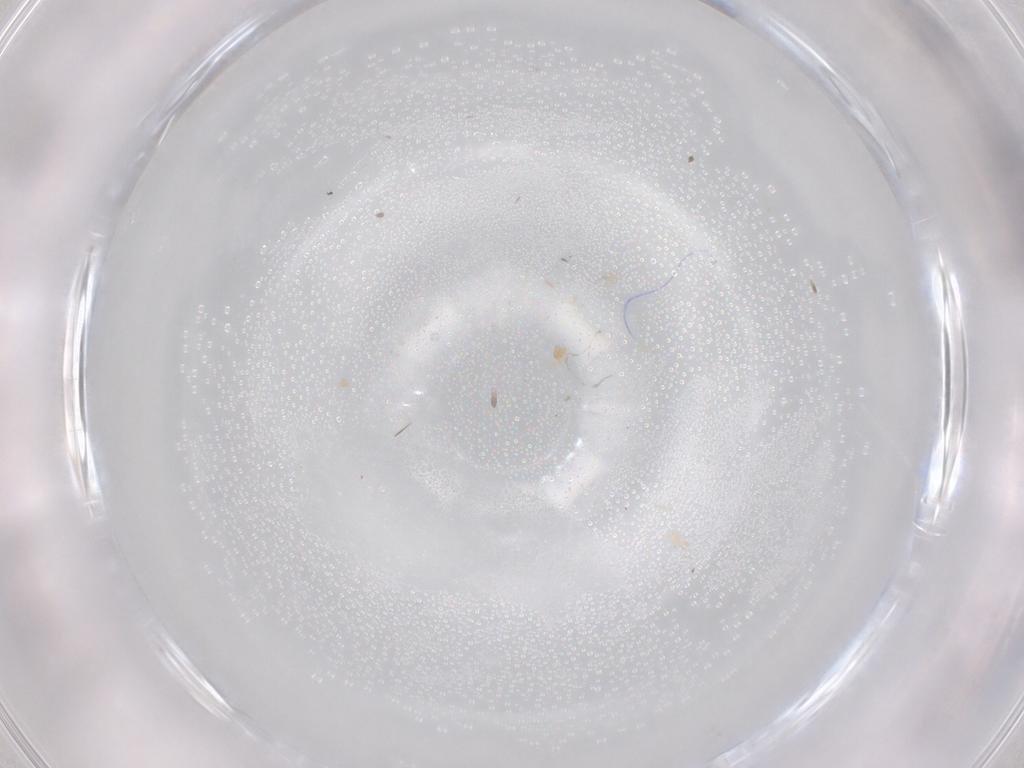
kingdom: Animalia
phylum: Arthropoda
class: Insecta
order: Diptera
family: Cecidomyiidae
